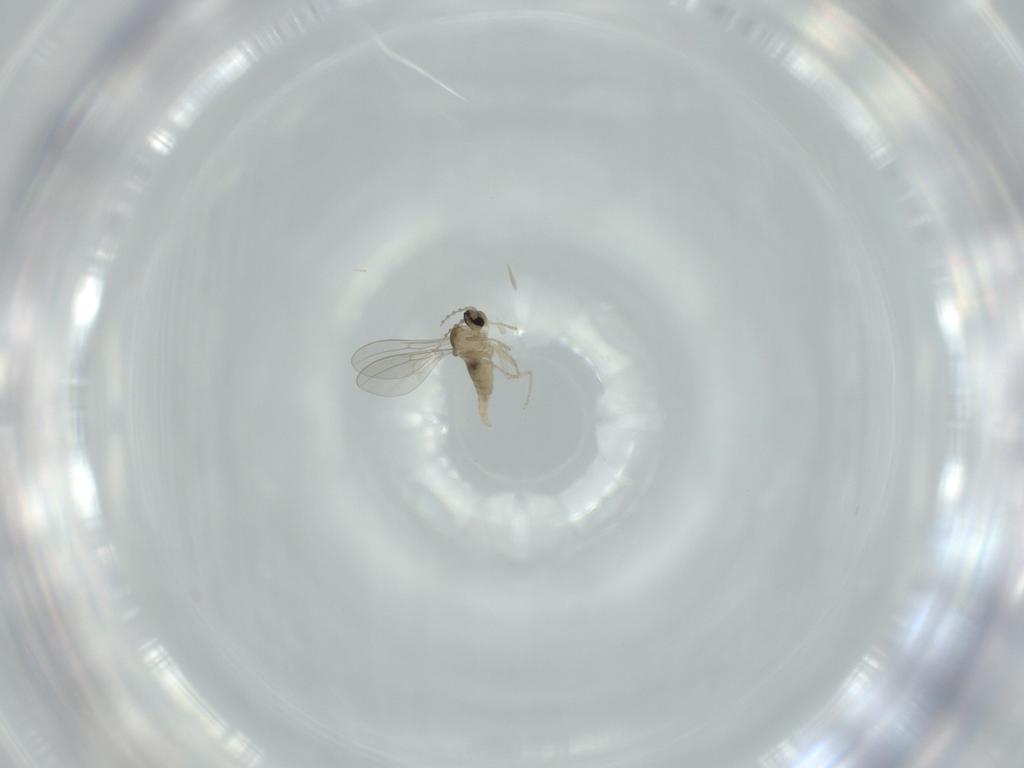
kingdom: Animalia
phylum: Arthropoda
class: Insecta
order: Diptera
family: Cecidomyiidae
